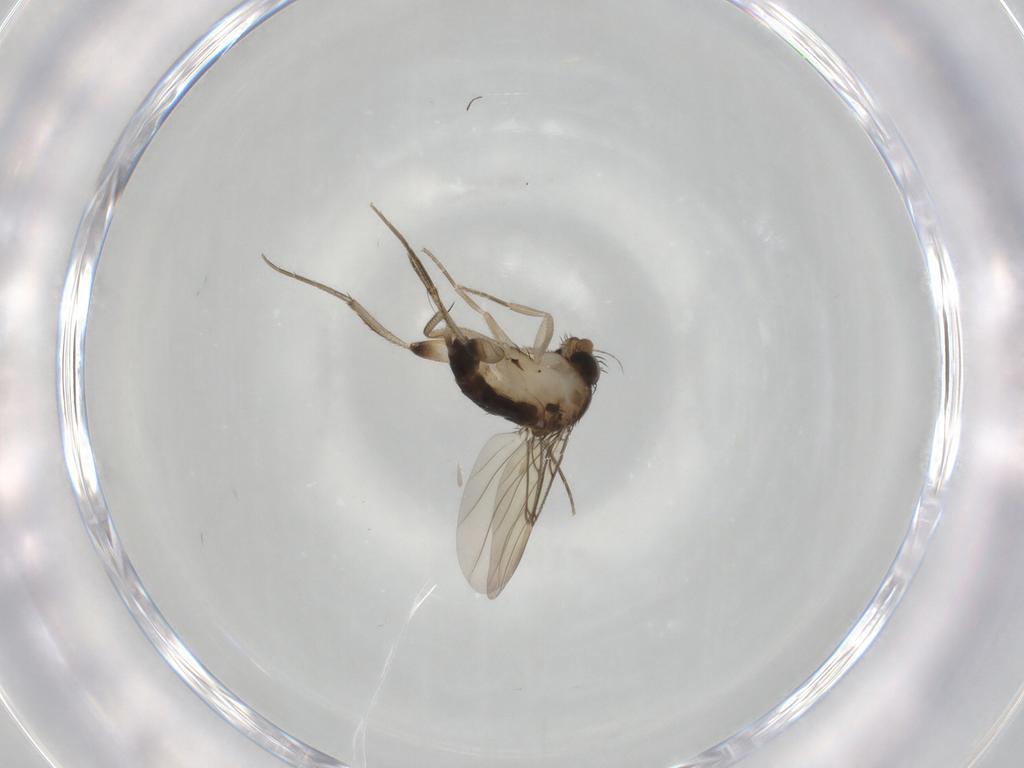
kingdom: Animalia
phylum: Arthropoda
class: Insecta
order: Diptera
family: Phoridae
